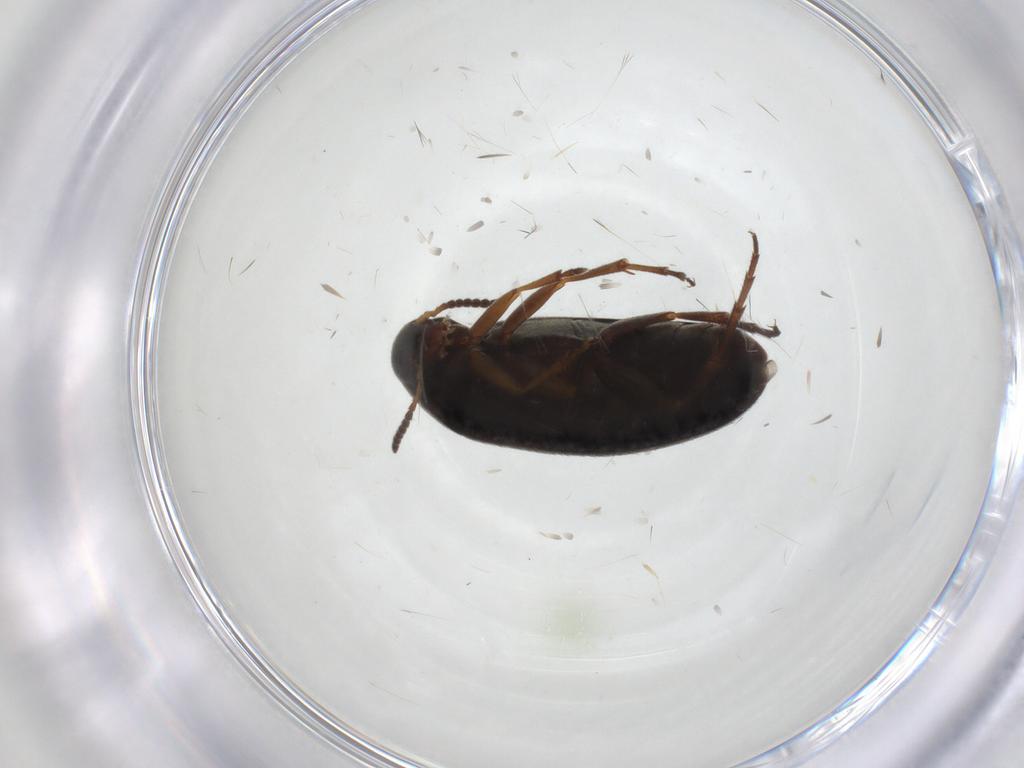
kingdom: Animalia
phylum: Arthropoda
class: Insecta
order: Coleoptera
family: Scraptiidae
